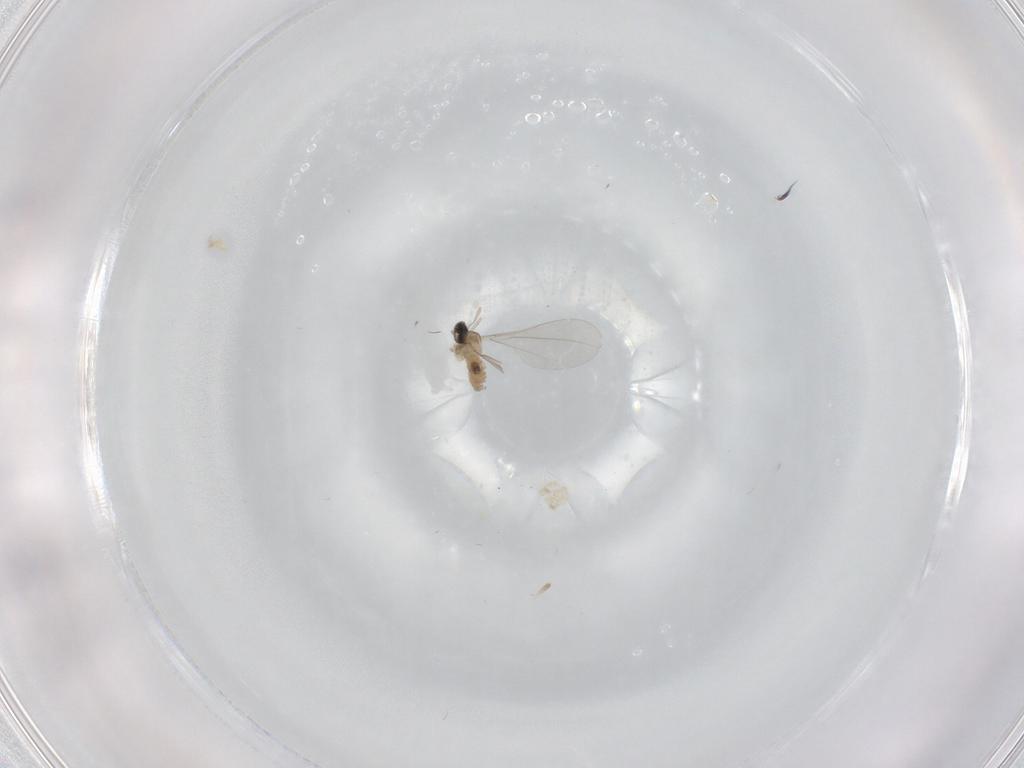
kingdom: Animalia
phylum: Arthropoda
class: Insecta
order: Diptera
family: Cecidomyiidae
